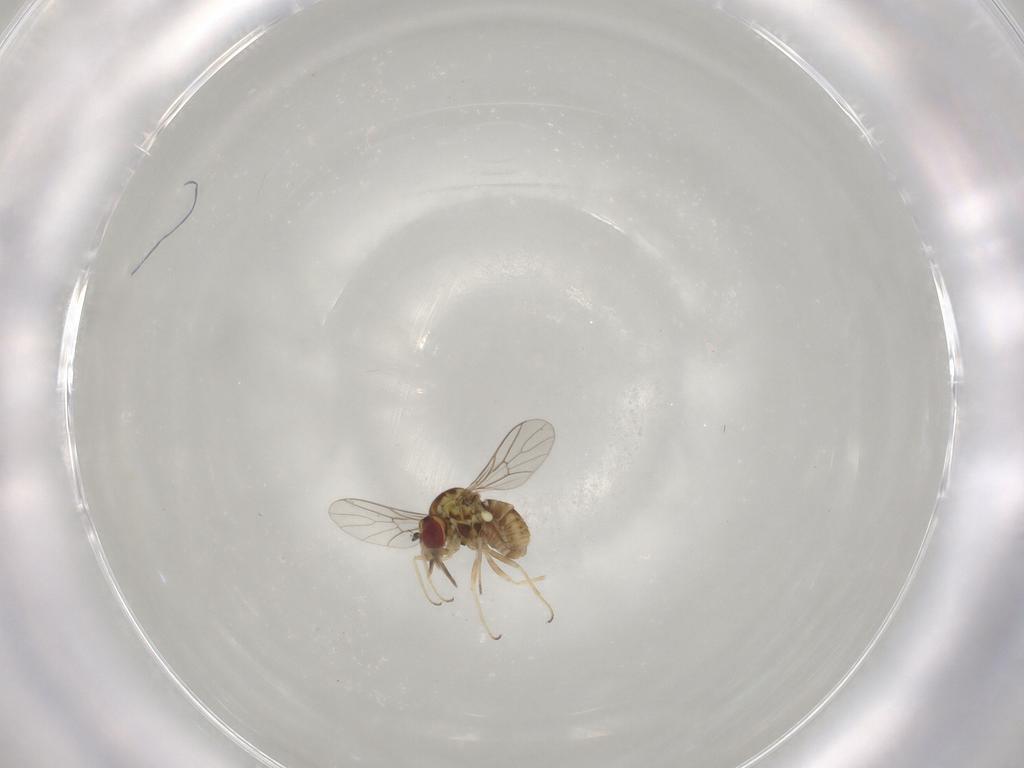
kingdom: Animalia
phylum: Arthropoda
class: Insecta
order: Diptera
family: Mythicomyiidae
